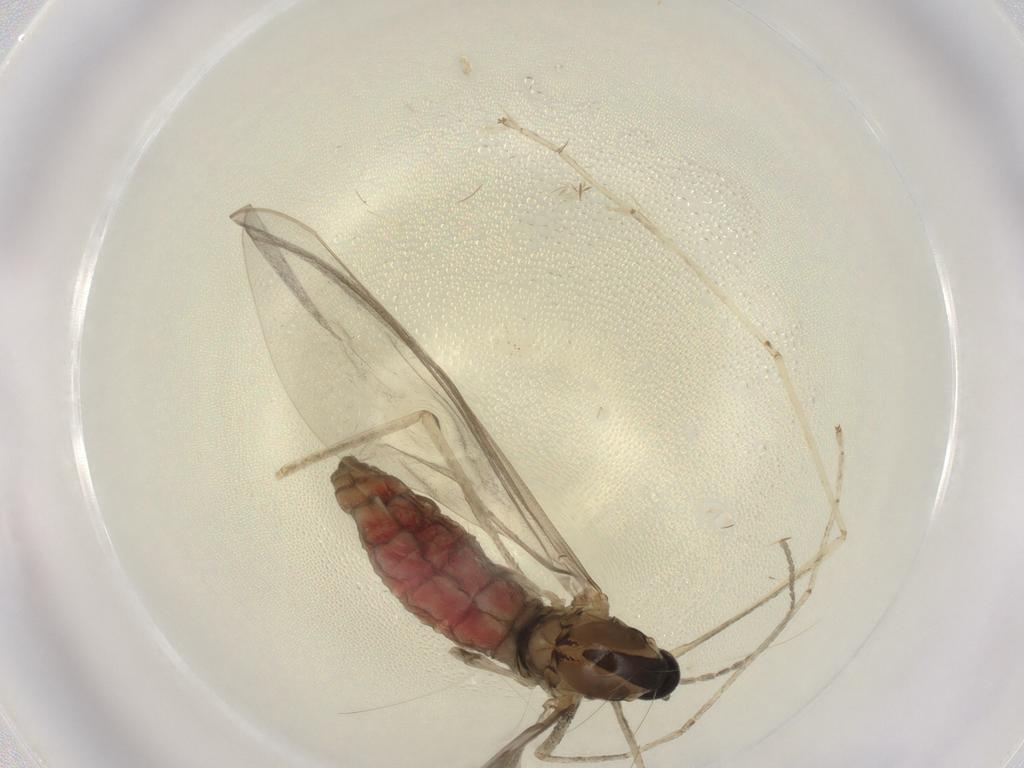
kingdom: Animalia
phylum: Arthropoda
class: Insecta
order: Diptera
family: Cecidomyiidae
